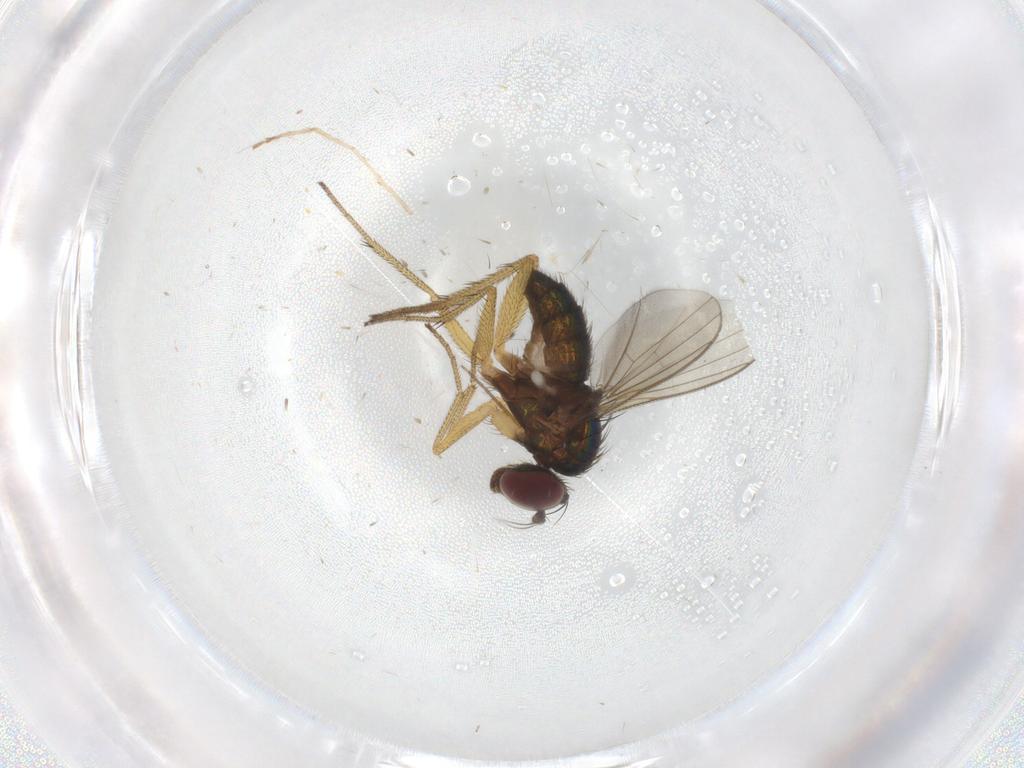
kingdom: Animalia
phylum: Arthropoda
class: Insecta
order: Diptera
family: Dolichopodidae
